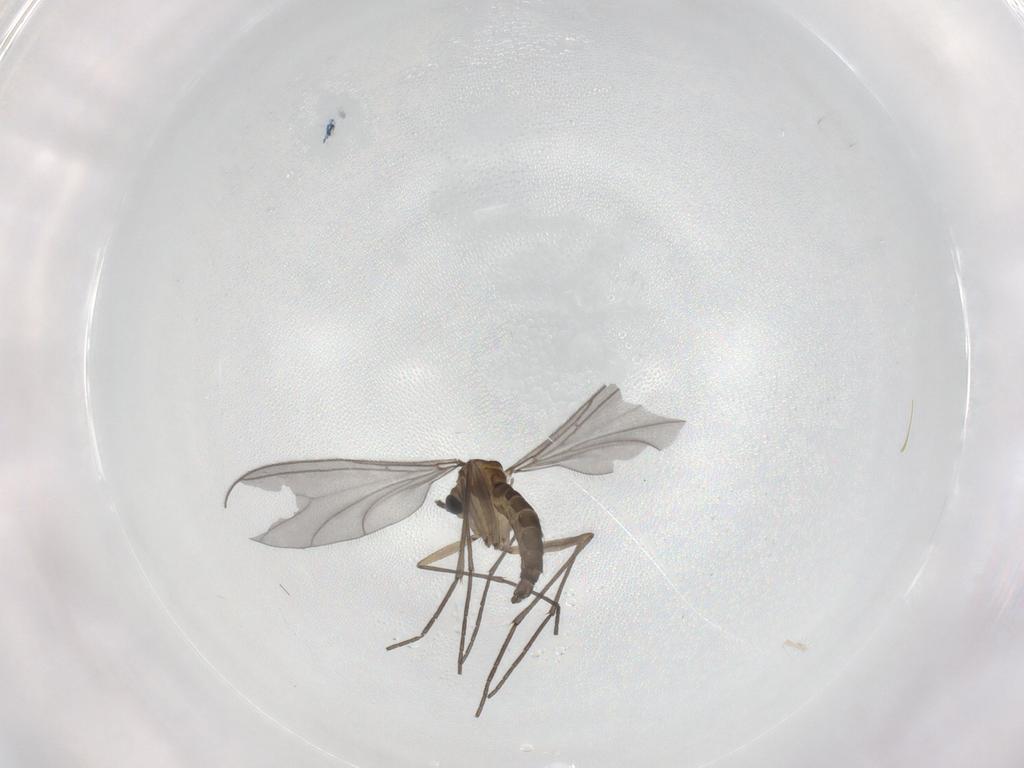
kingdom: Animalia
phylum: Arthropoda
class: Insecta
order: Diptera
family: Sciaridae
